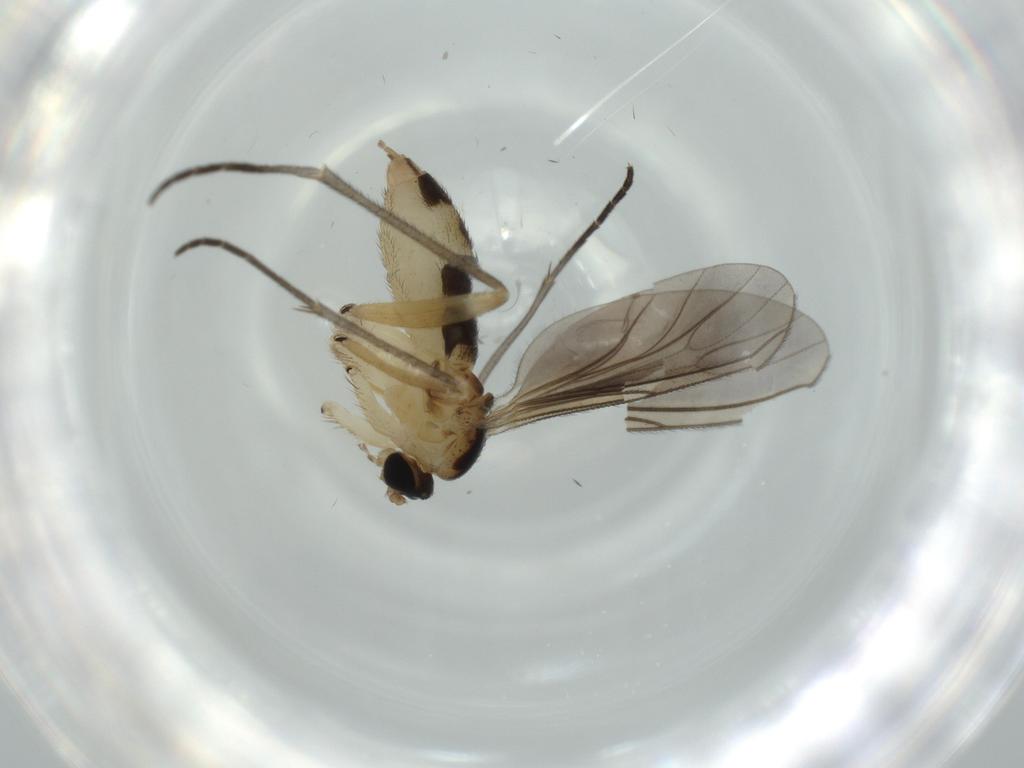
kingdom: Animalia
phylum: Arthropoda
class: Insecta
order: Diptera
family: Sciaridae
